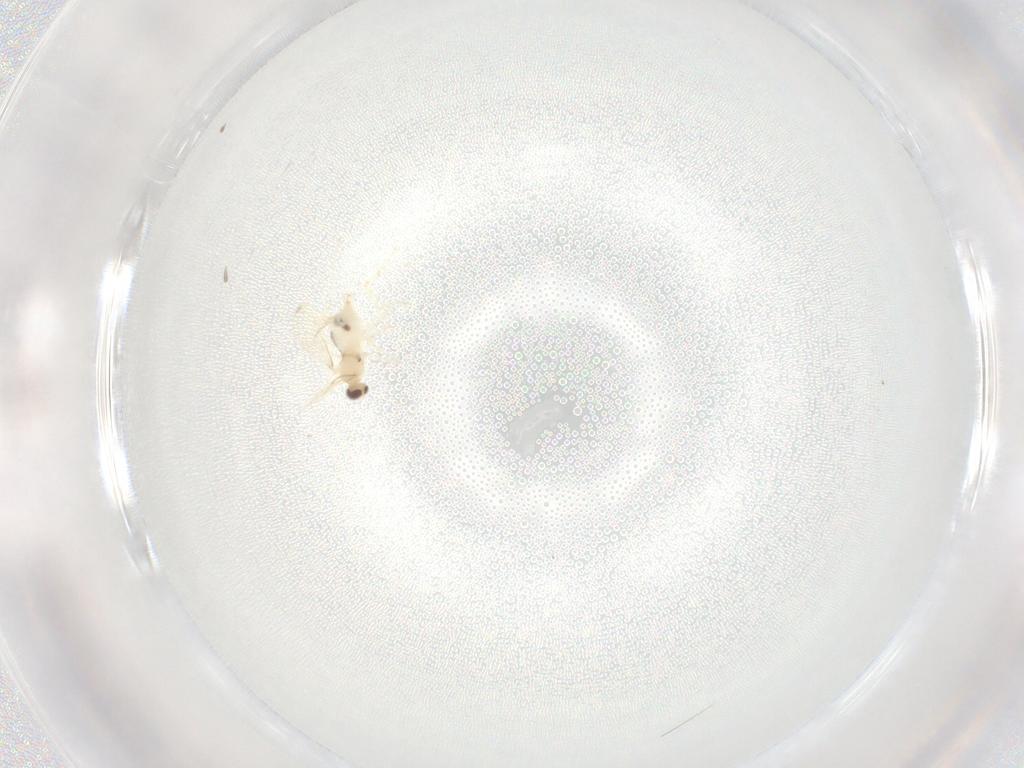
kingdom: Animalia
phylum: Arthropoda
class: Insecta
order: Diptera
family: Cecidomyiidae
